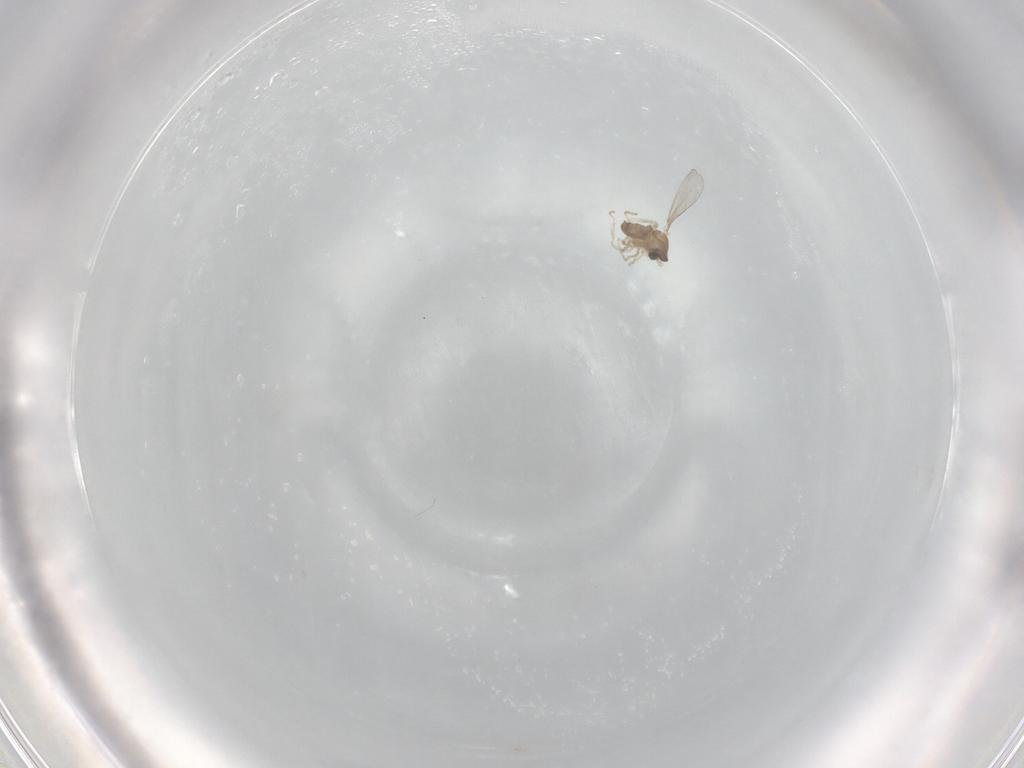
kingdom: Animalia
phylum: Arthropoda
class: Insecta
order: Diptera
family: Cecidomyiidae
